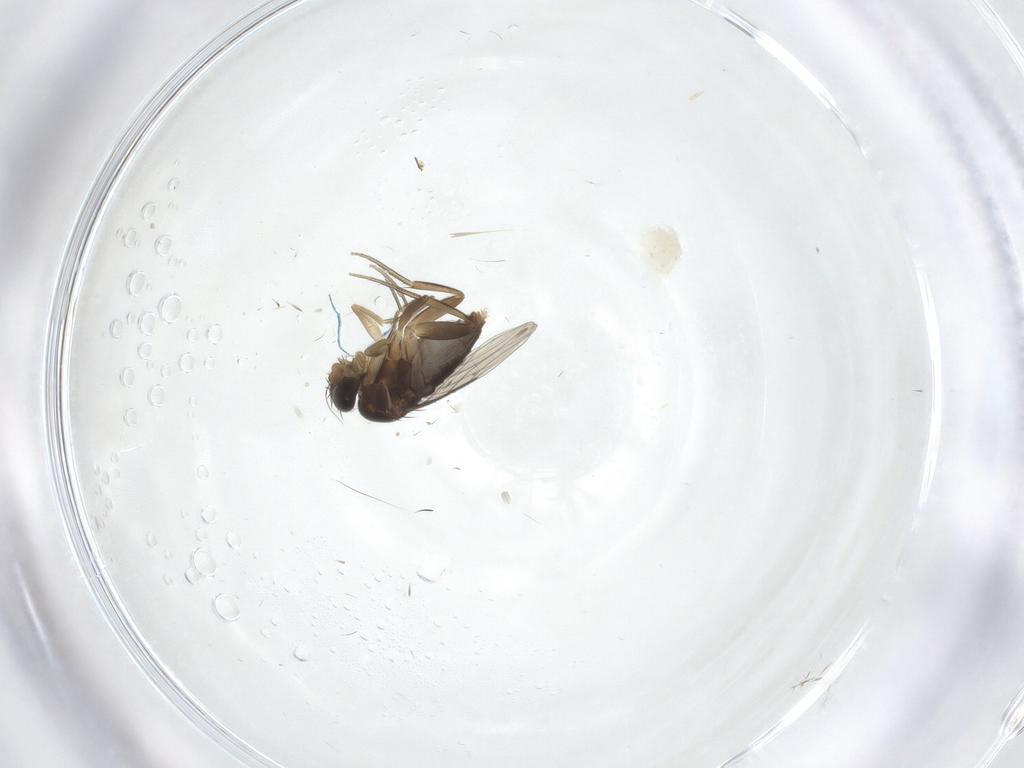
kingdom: Animalia
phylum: Arthropoda
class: Insecta
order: Diptera
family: Phoridae
